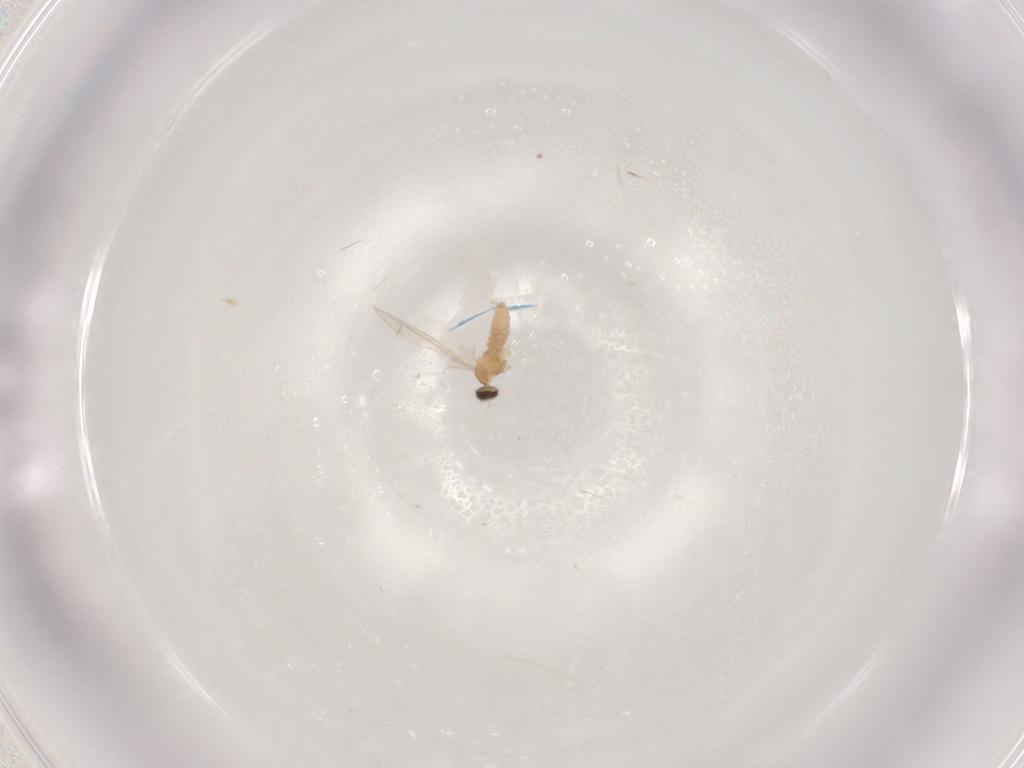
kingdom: Animalia
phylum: Arthropoda
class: Insecta
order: Diptera
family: Cecidomyiidae
